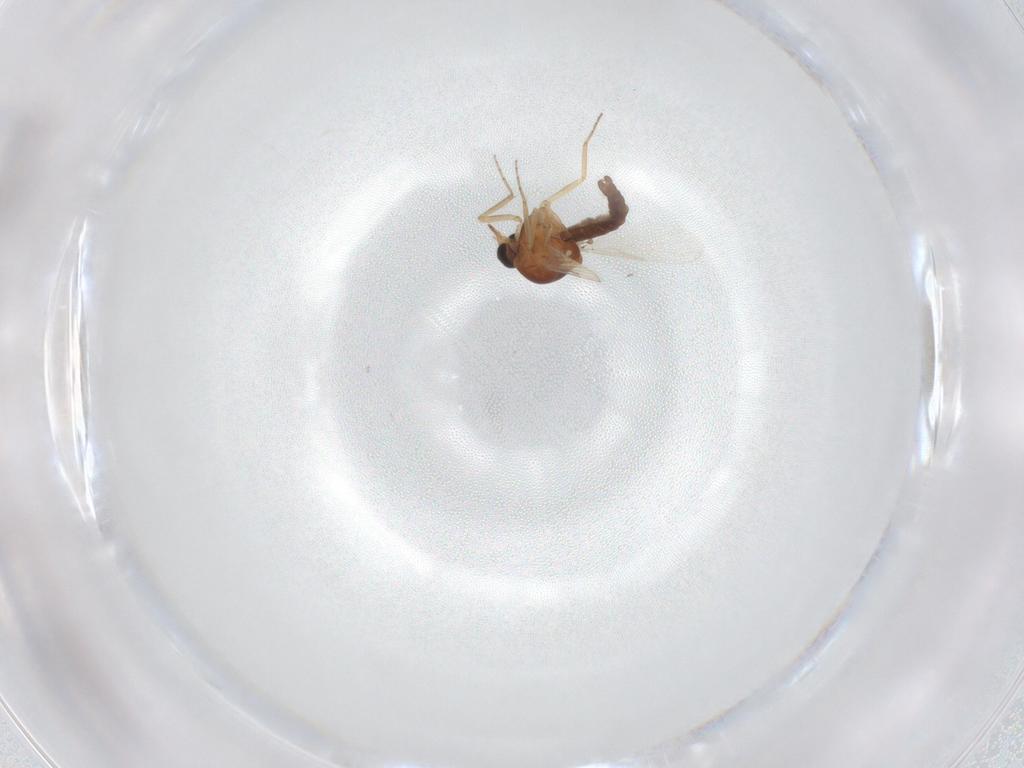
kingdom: Animalia
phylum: Arthropoda
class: Insecta
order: Diptera
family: Ceratopogonidae
